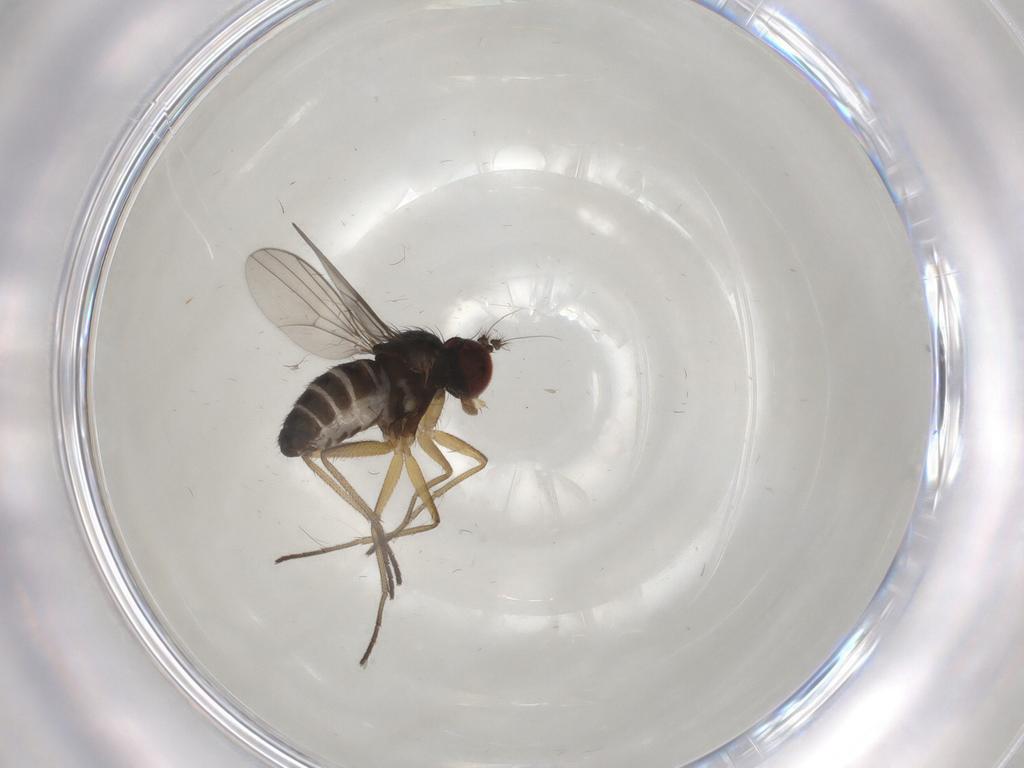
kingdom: Animalia
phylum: Arthropoda
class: Insecta
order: Diptera
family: Dolichopodidae
